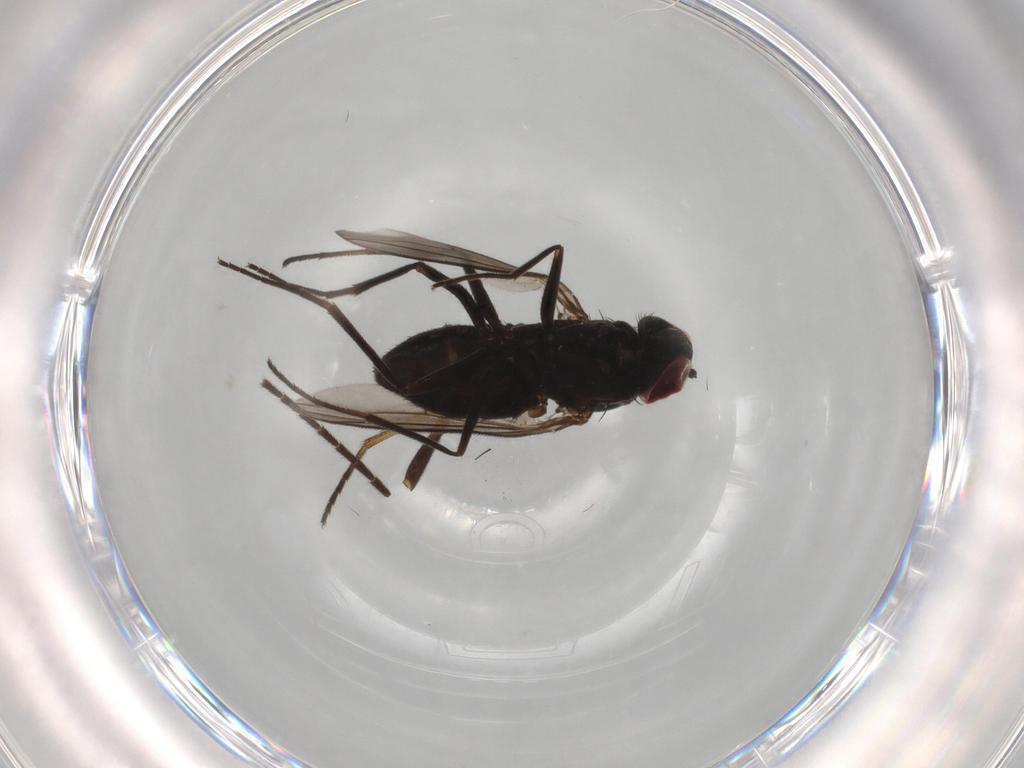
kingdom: Animalia
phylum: Arthropoda
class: Insecta
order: Diptera
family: Dolichopodidae
